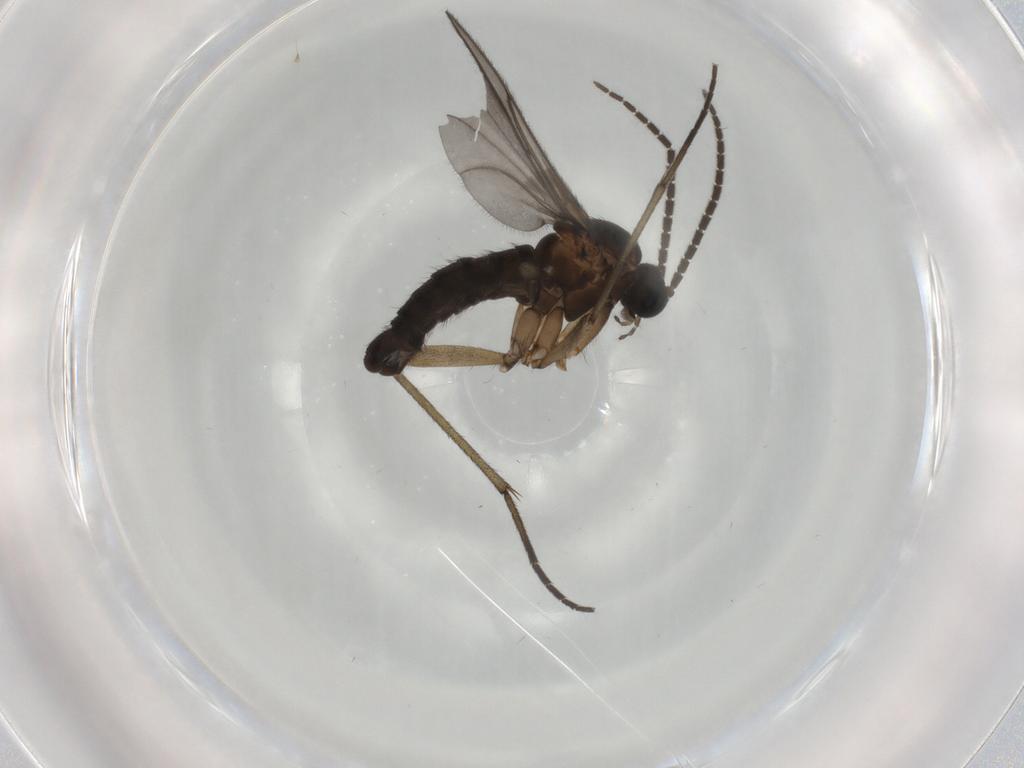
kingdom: Animalia
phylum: Arthropoda
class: Insecta
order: Diptera
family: Sciaridae
